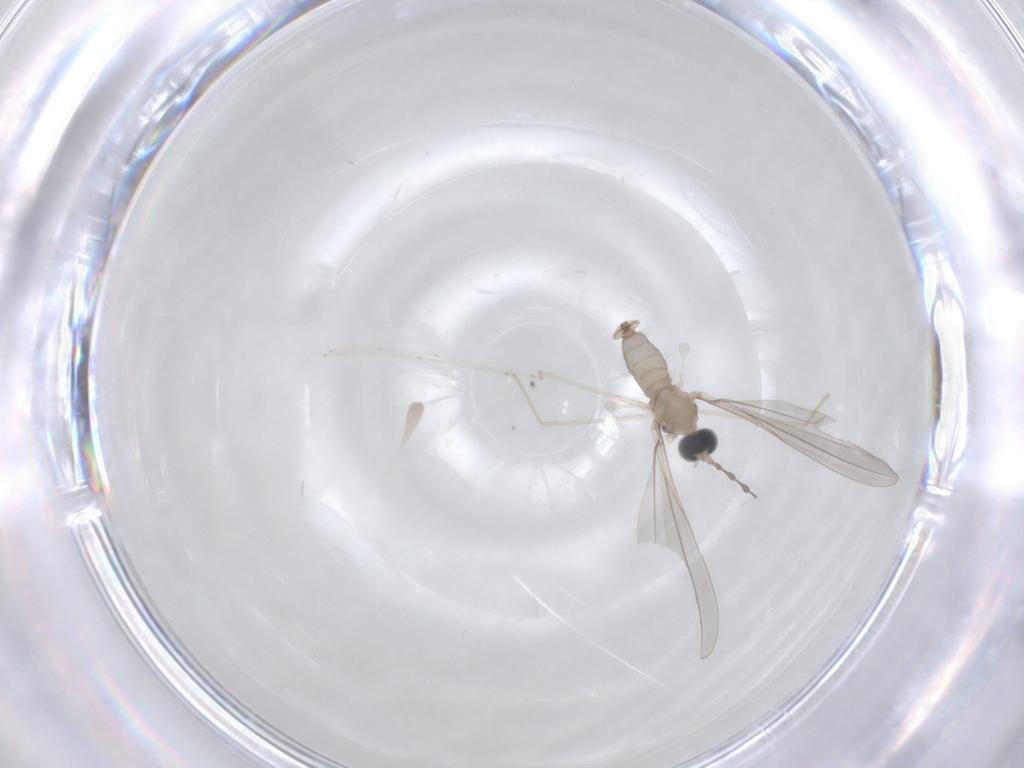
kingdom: Animalia
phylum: Arthropoda
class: Insecta
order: Diptera
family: Cecidomyiidae
